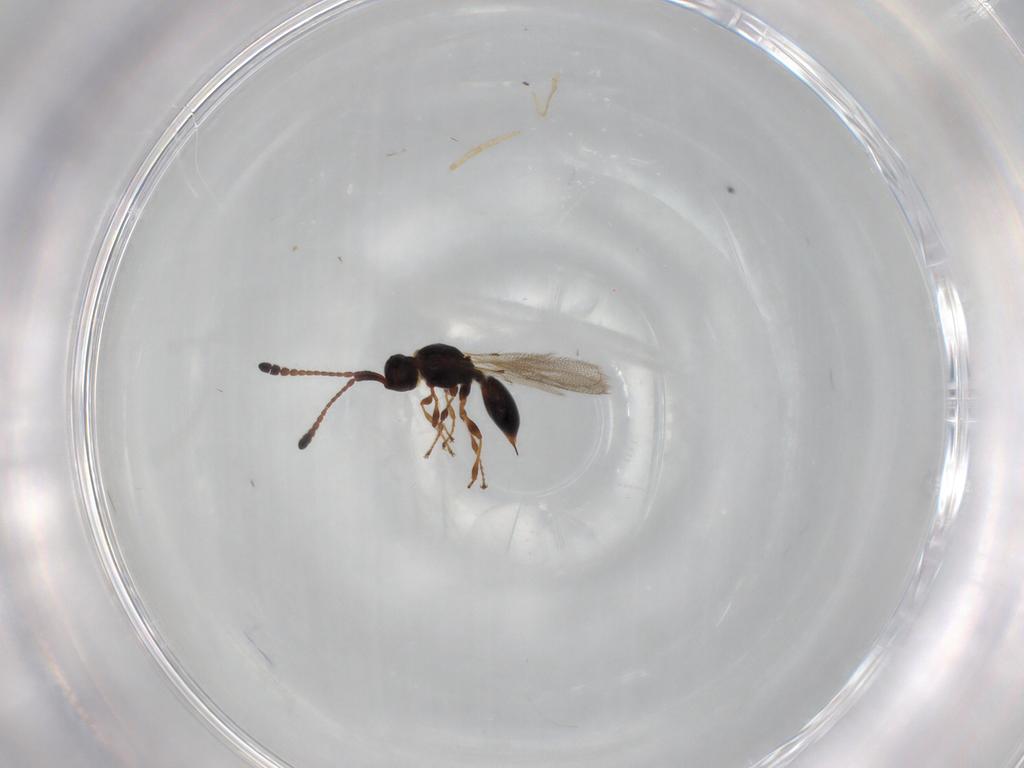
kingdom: Animalia
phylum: Arthropoda
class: Insecta
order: Hymenoptera
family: Diapriidae
